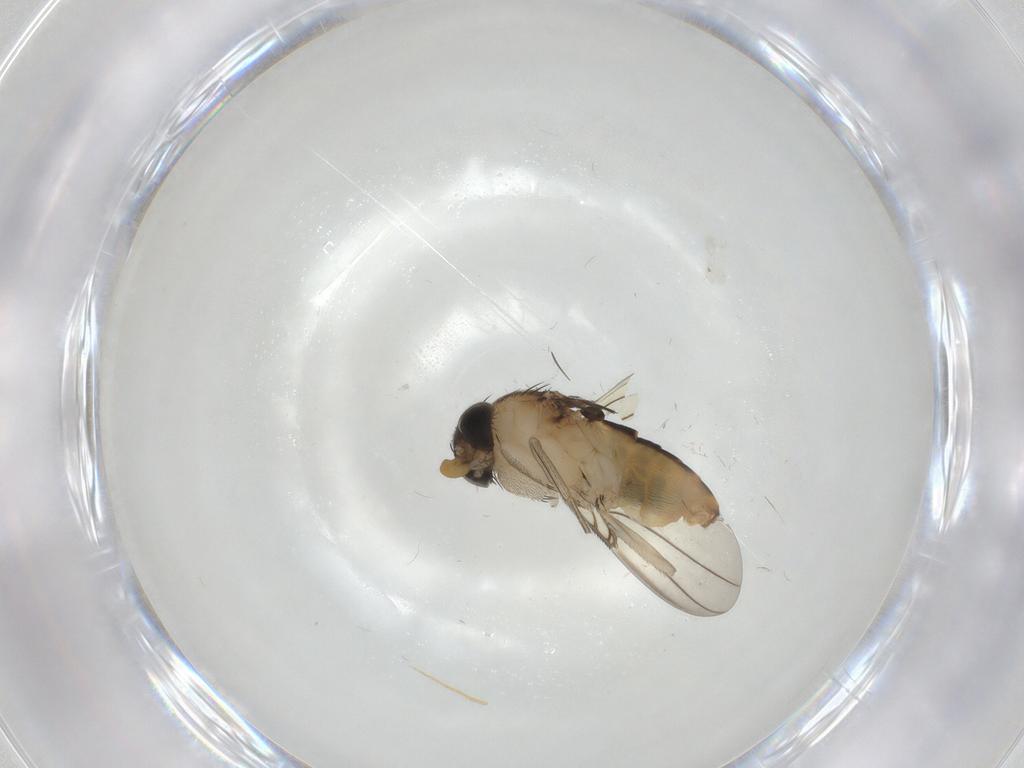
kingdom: Animalia
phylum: Arthropoda
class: Insecta
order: Diptera
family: Phoridae
